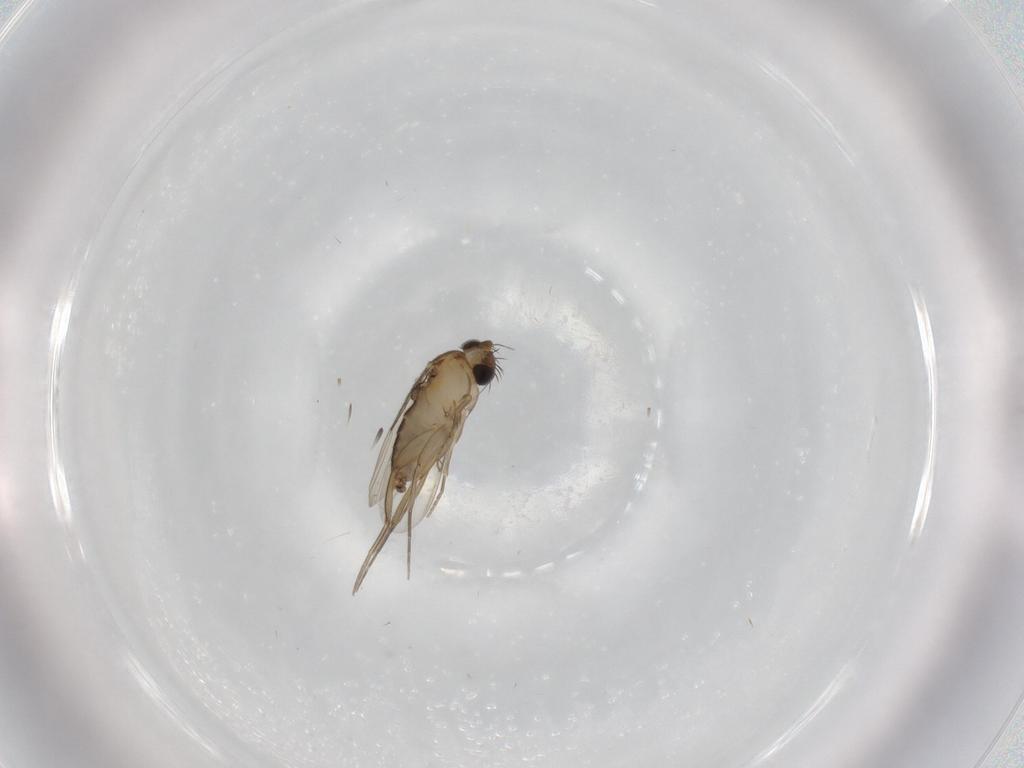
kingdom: Animalia
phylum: Arthropoda
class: Insecta
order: Diptera
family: Phoridae
